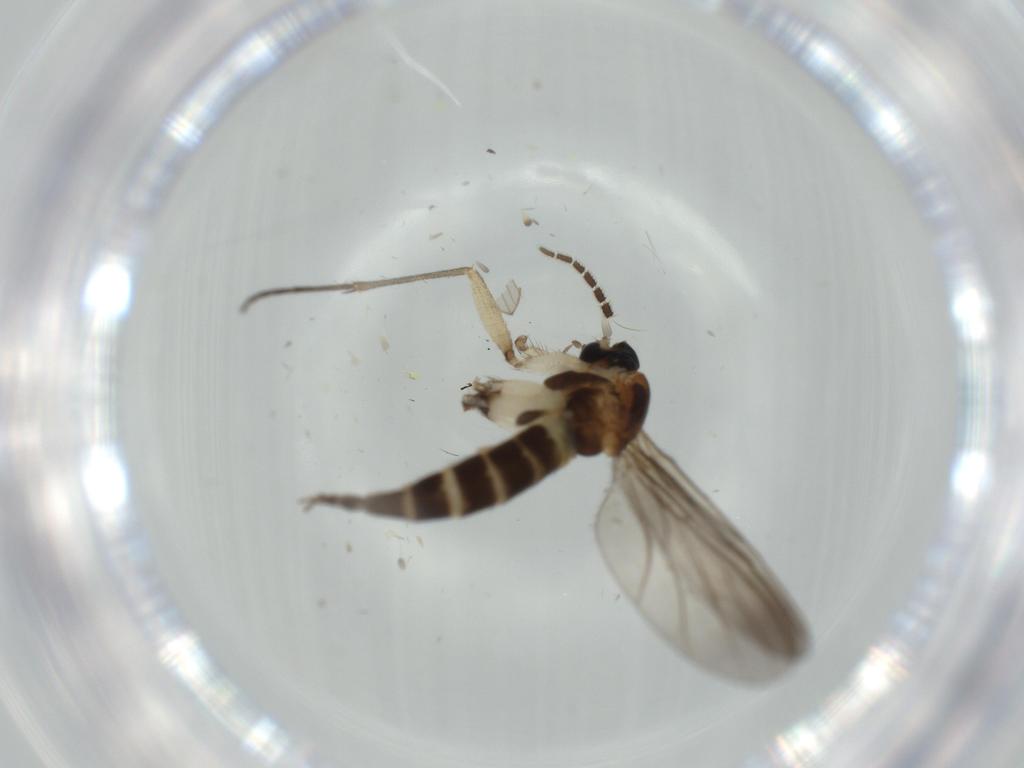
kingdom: Animalia
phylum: Arthropoda
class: Insecta
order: Diptera
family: Sciaridae
